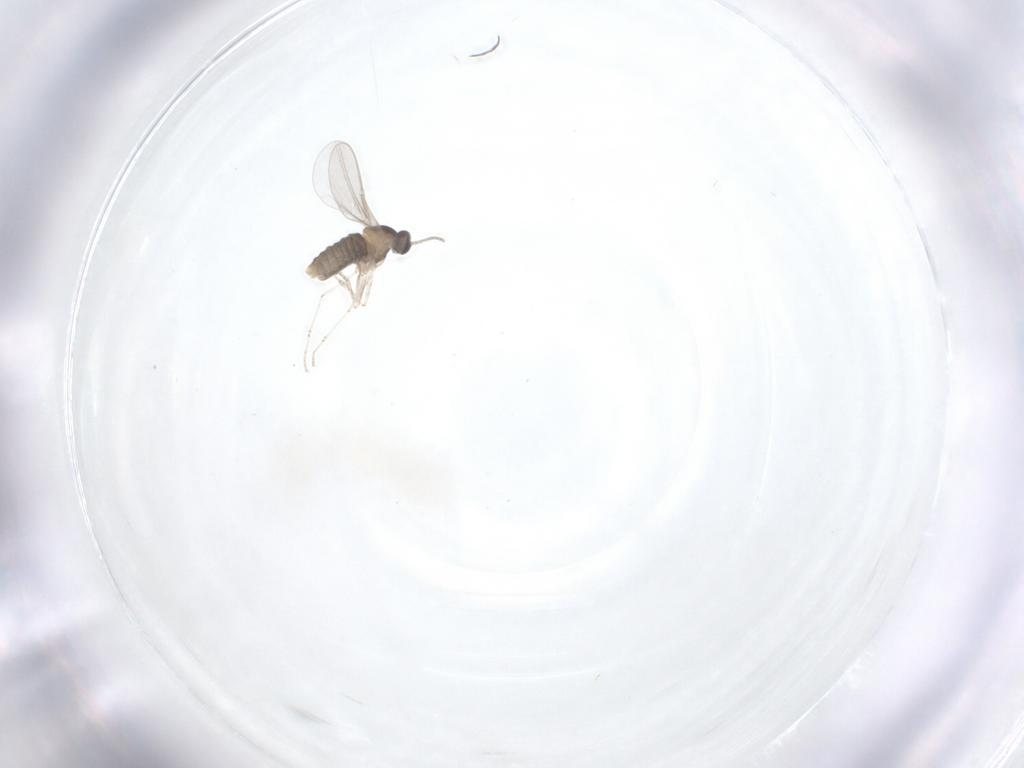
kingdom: Animalia
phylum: Arthropoda
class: Insecta
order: Diptera
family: Cecidomyiidae
